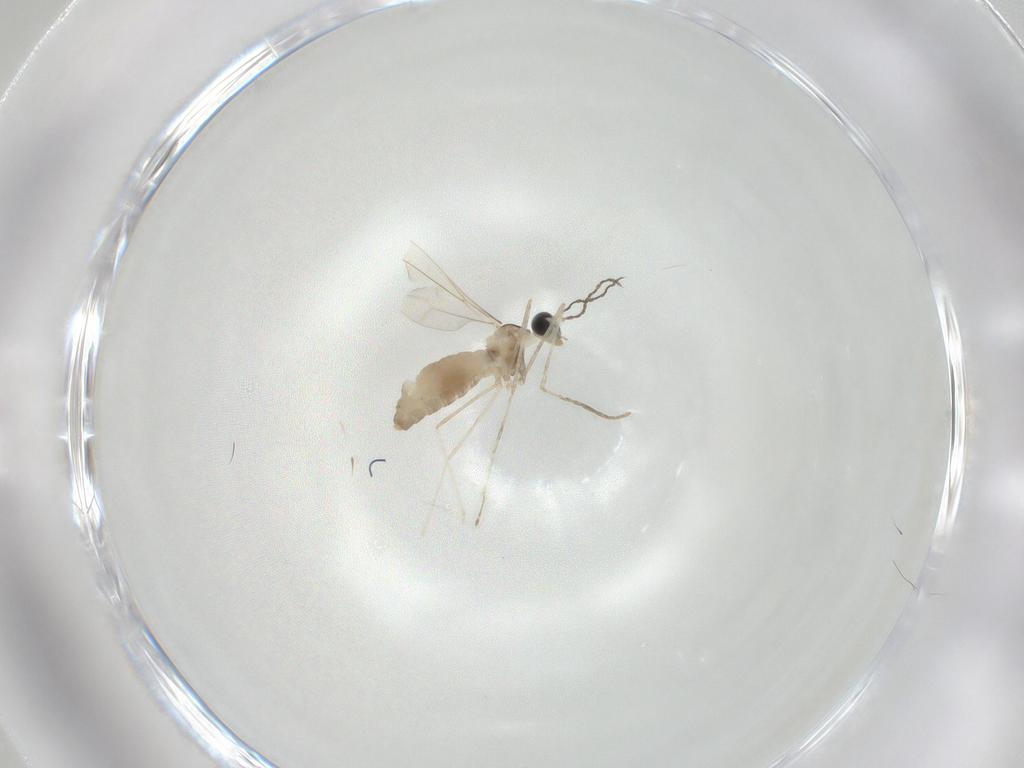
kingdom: Animalia
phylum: Arthropoda
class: Insecta
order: Diptera
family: Cecidomyiidae
